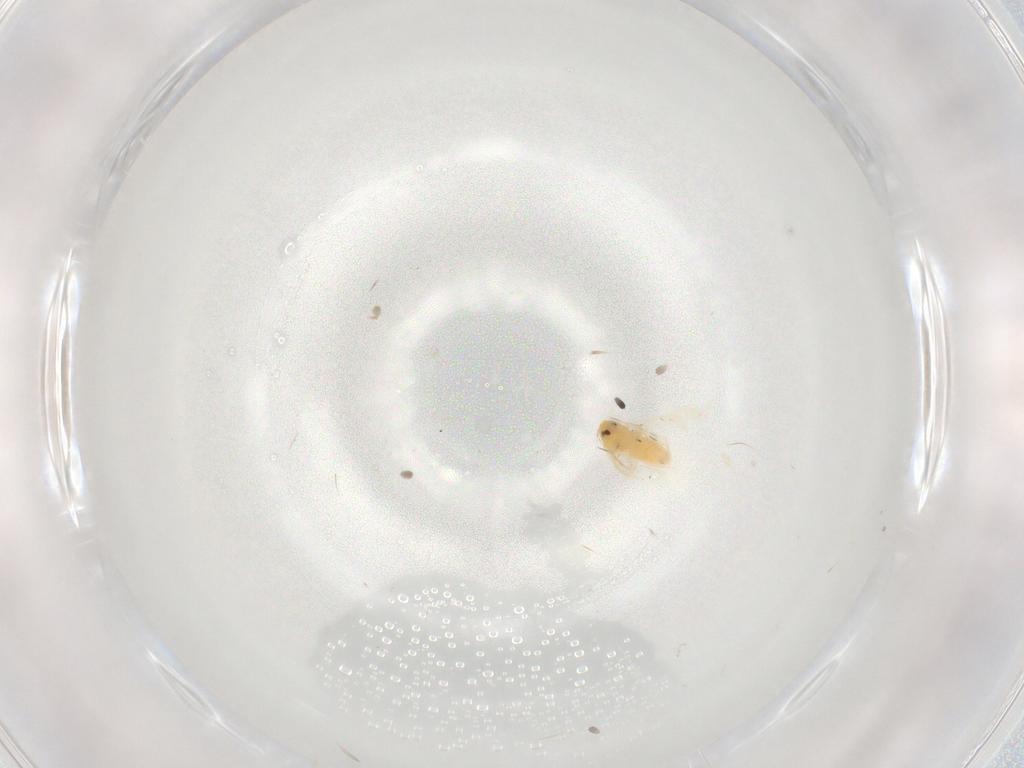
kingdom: Animalia
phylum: Arthropoda
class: Insecta
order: Hemiptera
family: Aleyrodidae
